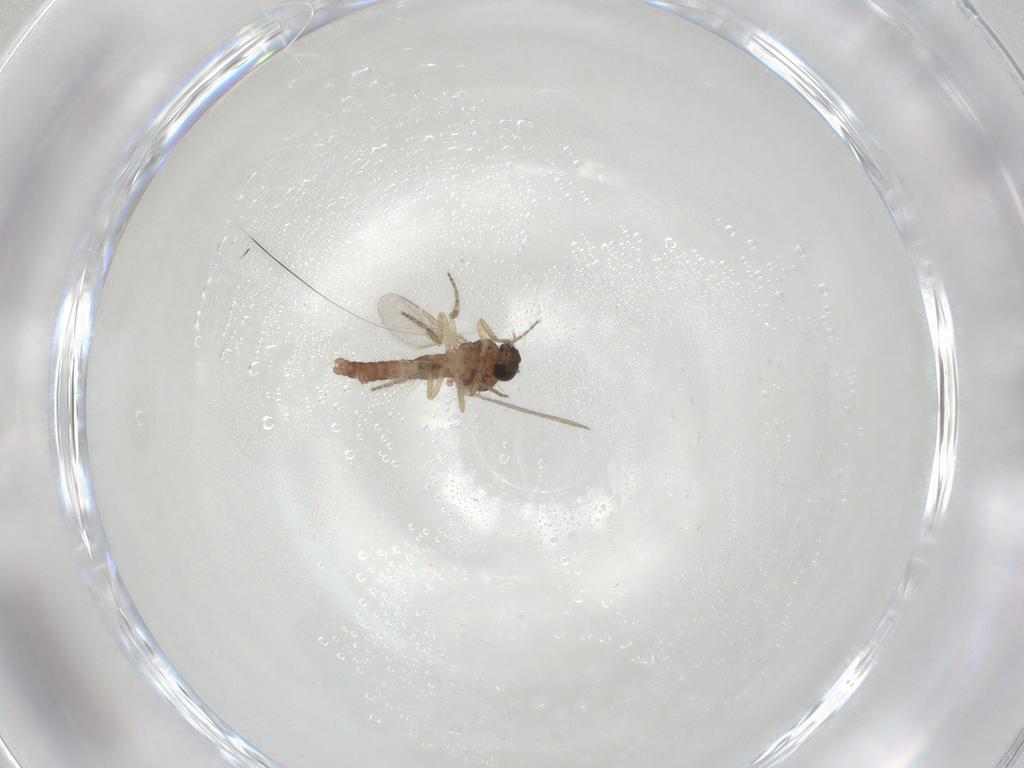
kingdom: Animalia
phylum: Arthropoda
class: Insecta
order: Diptera
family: Ceratopogonidae
